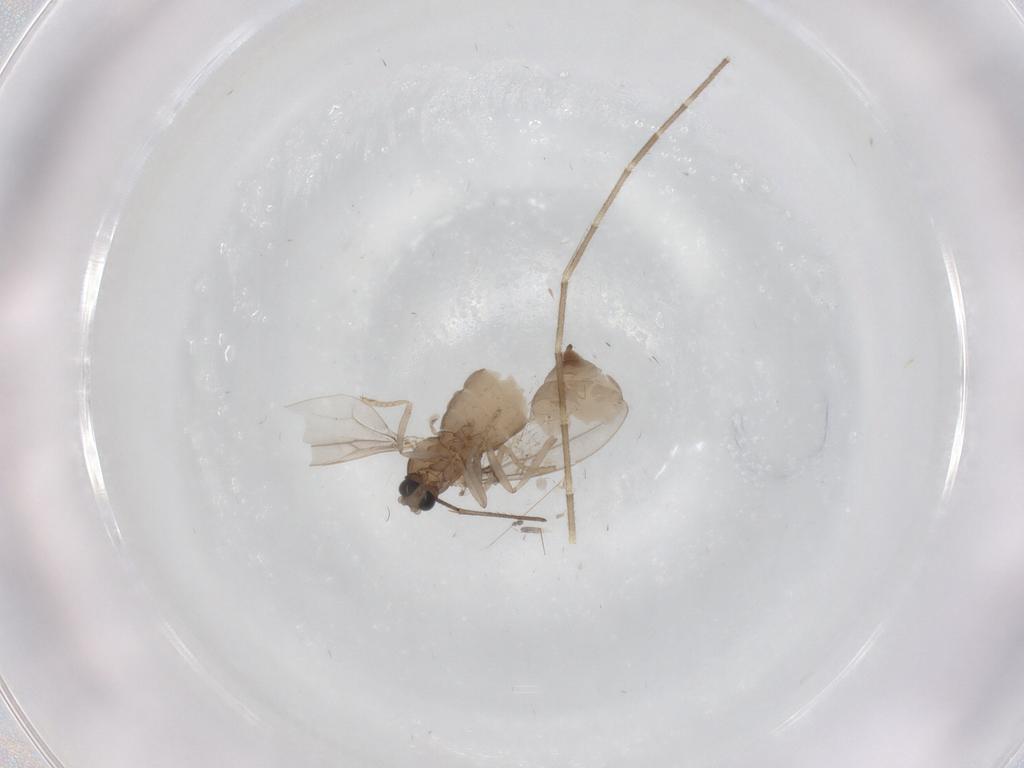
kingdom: Animalia
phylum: Arthropoda
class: Insecta
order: Diptera
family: Cecidomyiidae
